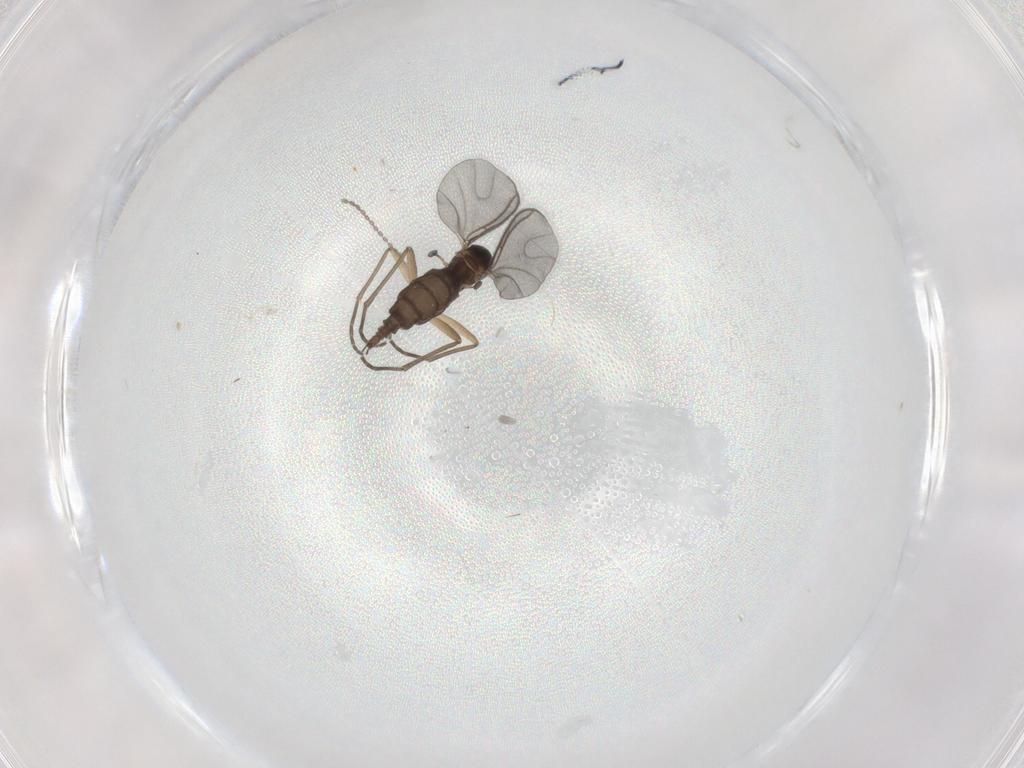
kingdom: Animalia
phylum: Arthropoda
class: Insecta
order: Diptera
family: Sciaridae
